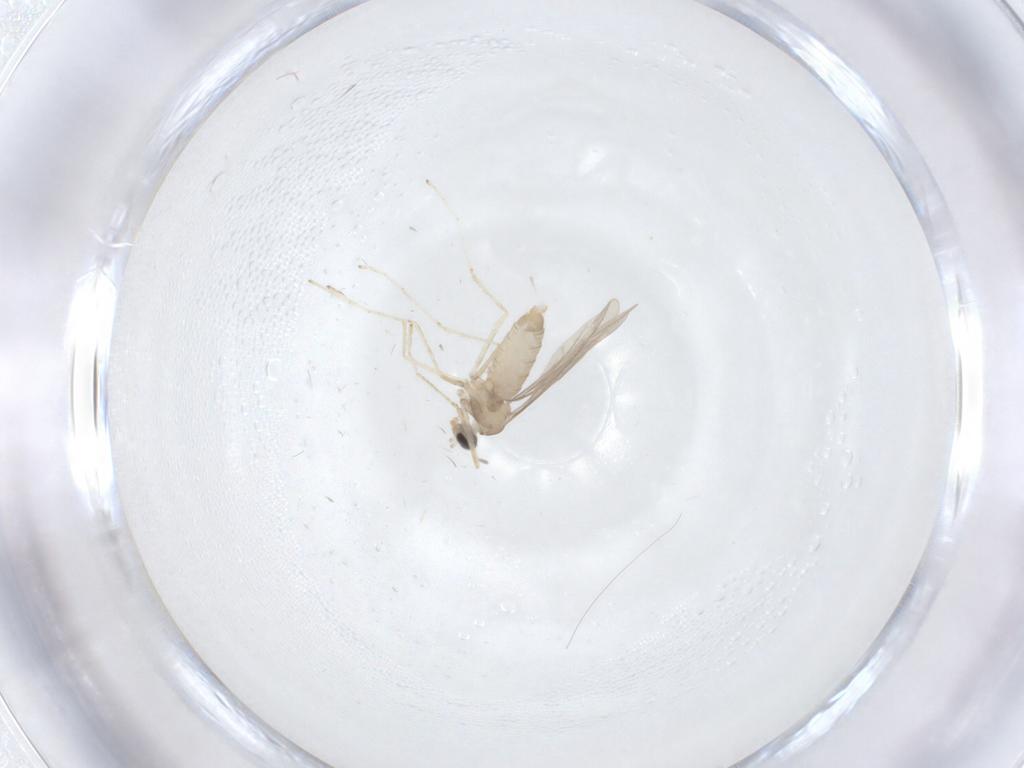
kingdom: Animalia
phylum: Arthropoda
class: Insecta
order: Diptera
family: Cecidomyiidae
